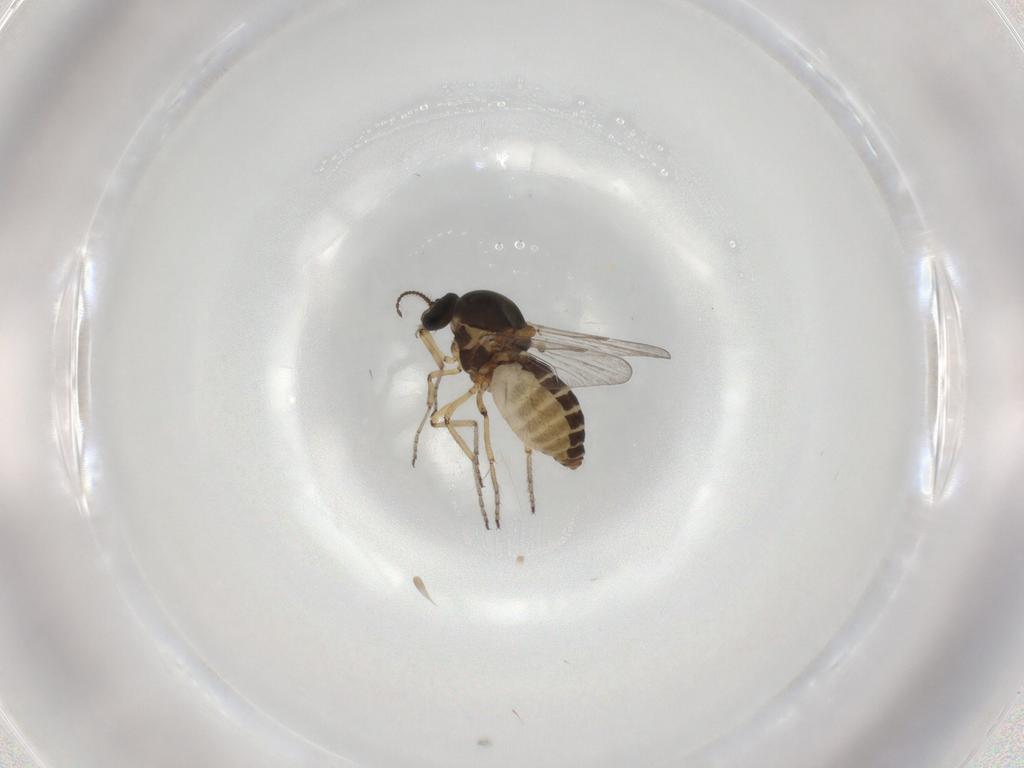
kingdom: Animalia
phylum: Arthropoda
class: Insecta
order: Diptera
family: Ceratopogonidae
